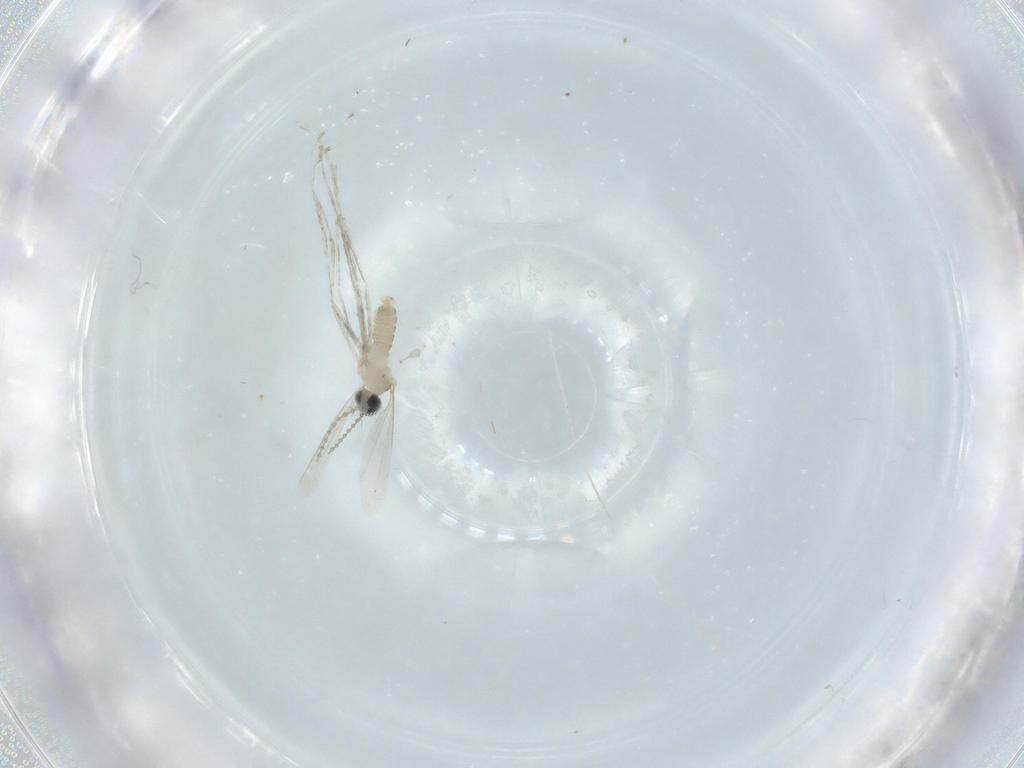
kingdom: Animalia
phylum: Arthropoda
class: Insecta
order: Diptera
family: Cecidomyiidae
